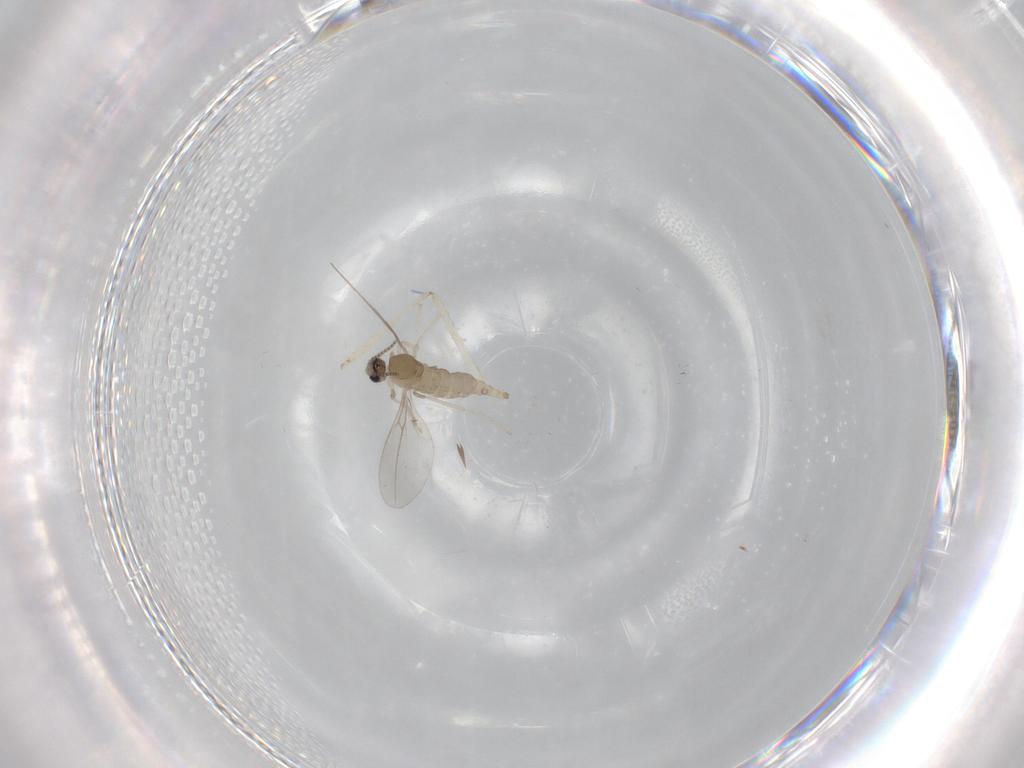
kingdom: Animalia
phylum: Arthropoda
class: Insecta
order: Diptera
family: Cecidomyiidae
